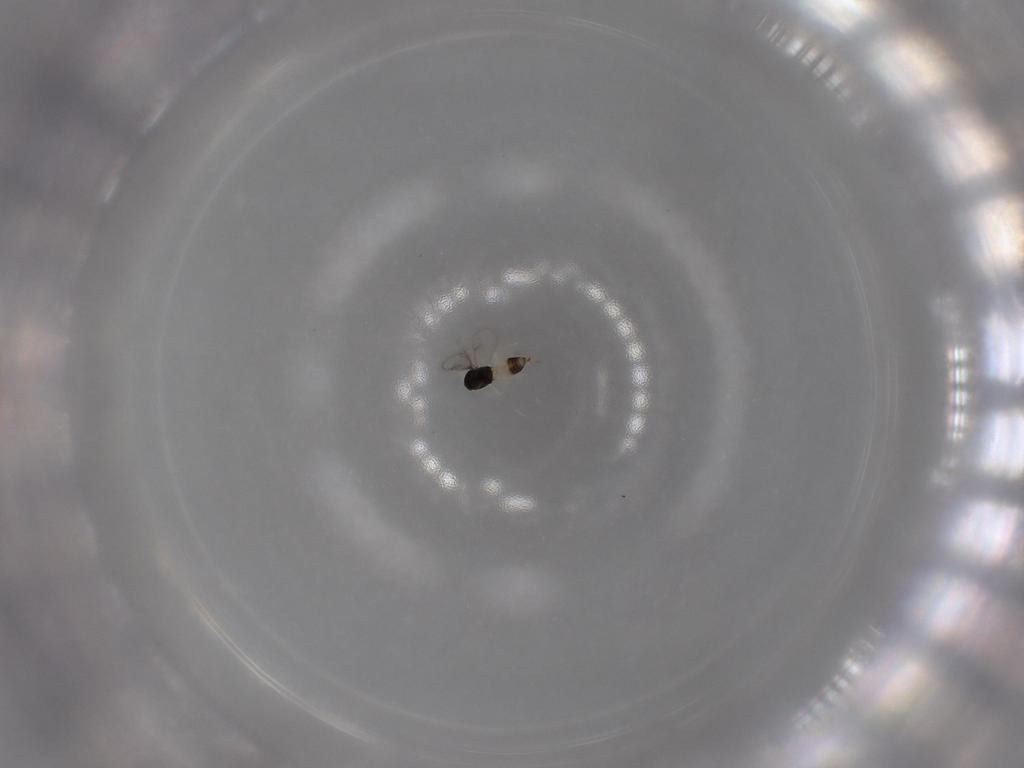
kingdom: Animalia
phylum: Arthropoda
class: Insecta
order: Hymenoptera
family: Eulophidae
